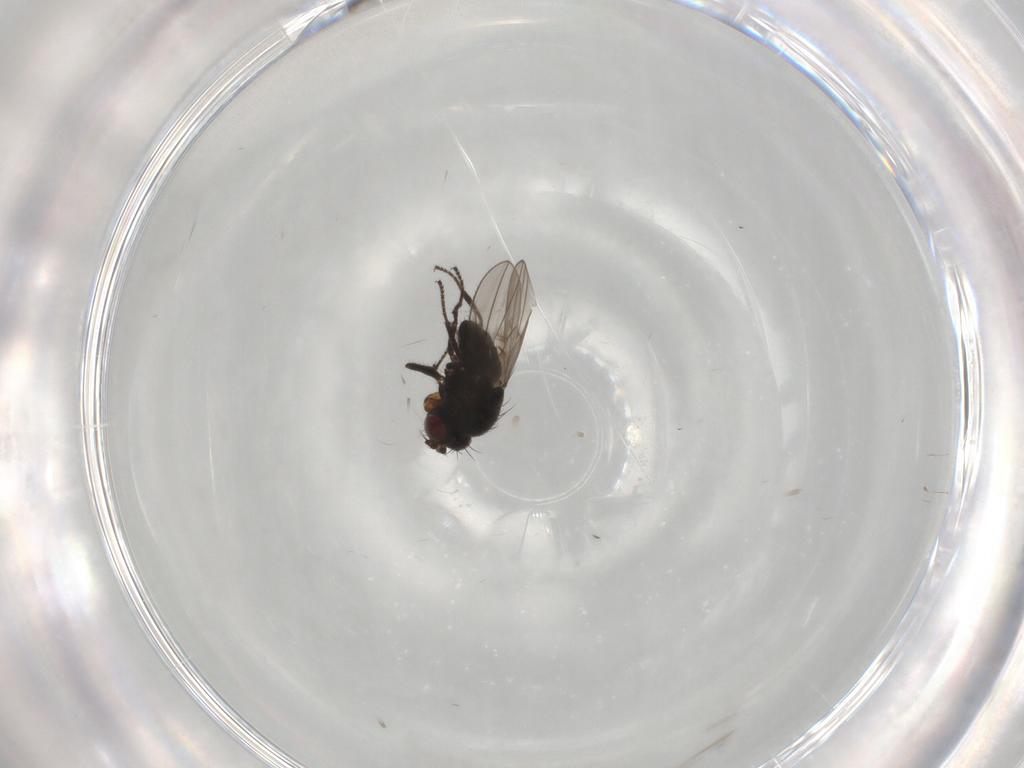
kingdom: Animalia
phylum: Arthropoda
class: Insecta
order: Diptera
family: Ephydridae
